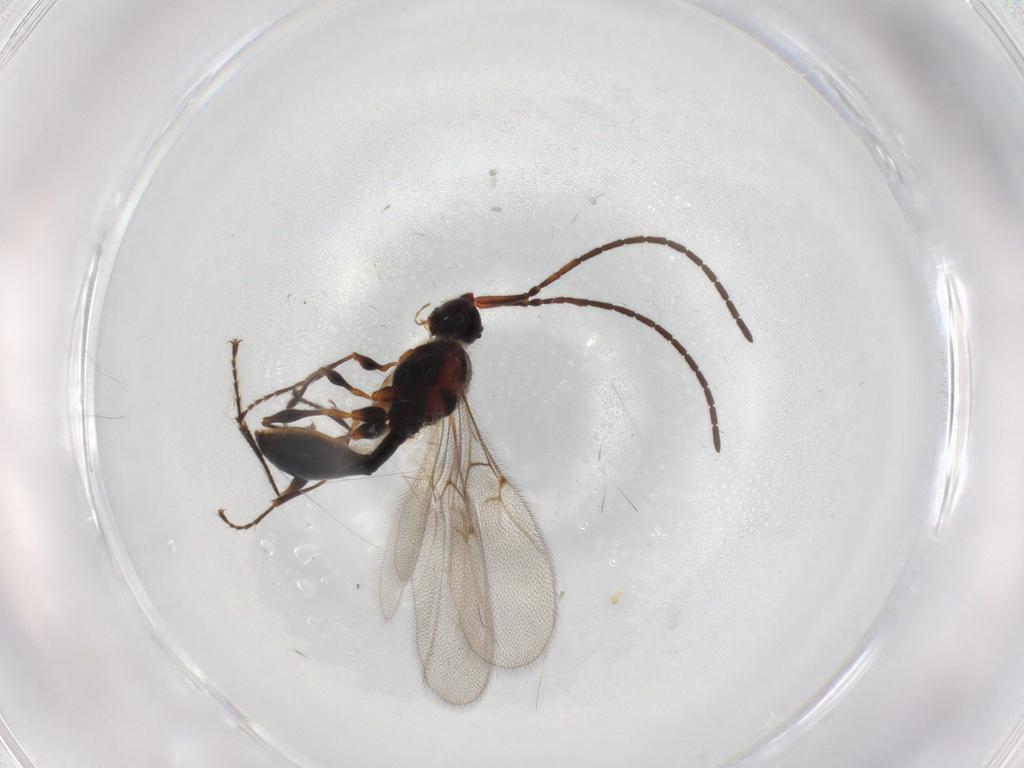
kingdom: Animalia
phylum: Arthropoda
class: Insecta
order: Hymenoptera
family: Diapriidae
